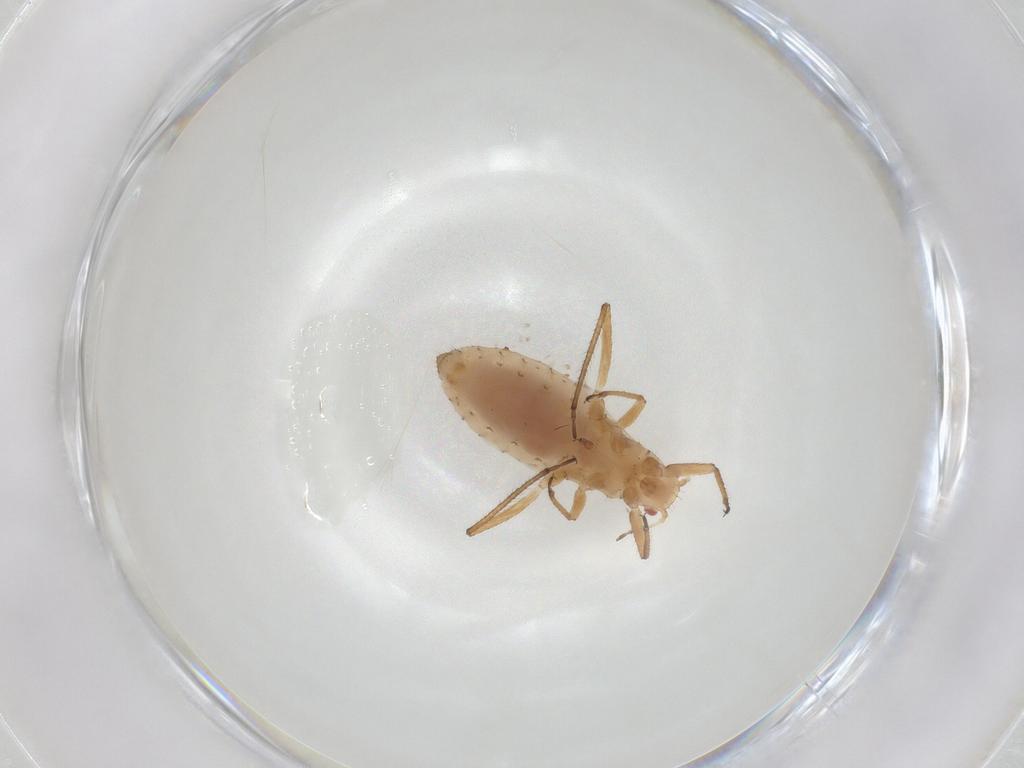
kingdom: Animalia
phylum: Arthropoda
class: Insecta
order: Hemiptera
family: Lachnidae
